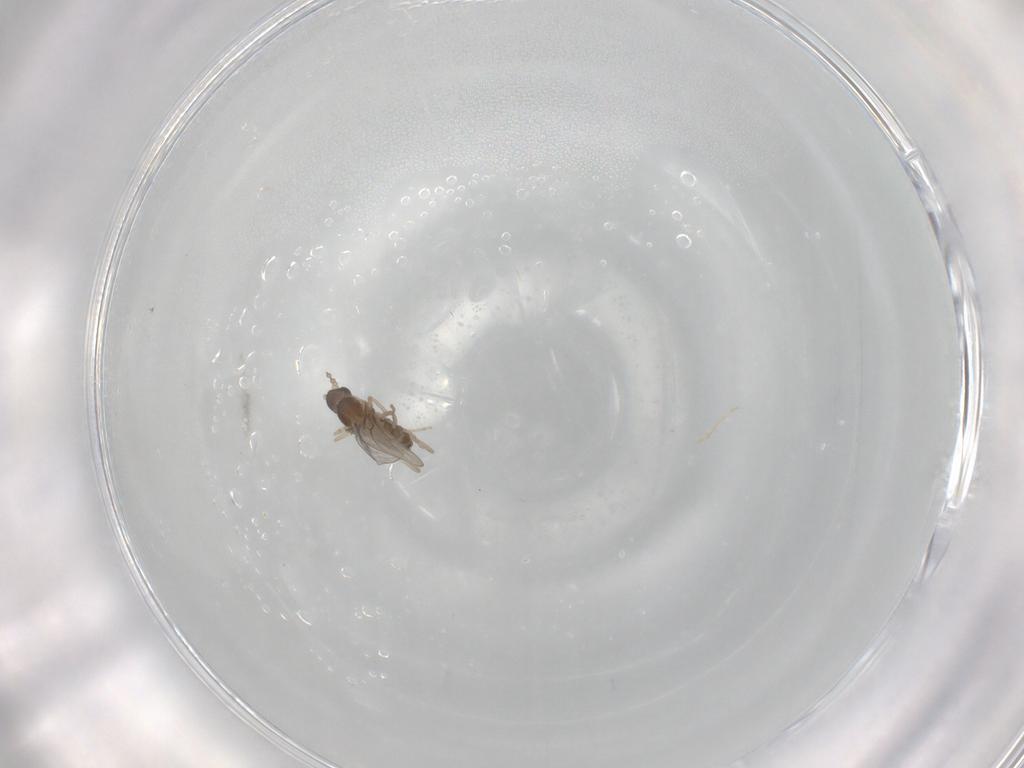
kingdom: Animalia
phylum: Arthropoda
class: Insecta
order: Diptera
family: Cecidomyiidae
